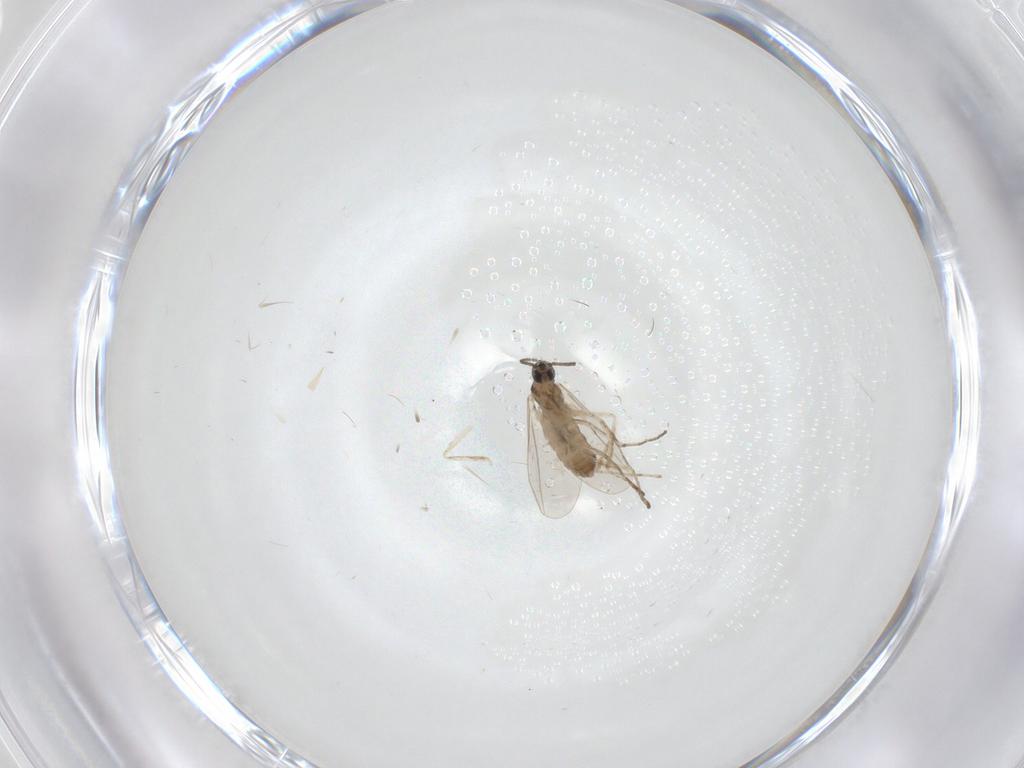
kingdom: Animalia
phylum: Arthropoda
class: Insecta
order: Diptera
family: Cecidomyiidae
